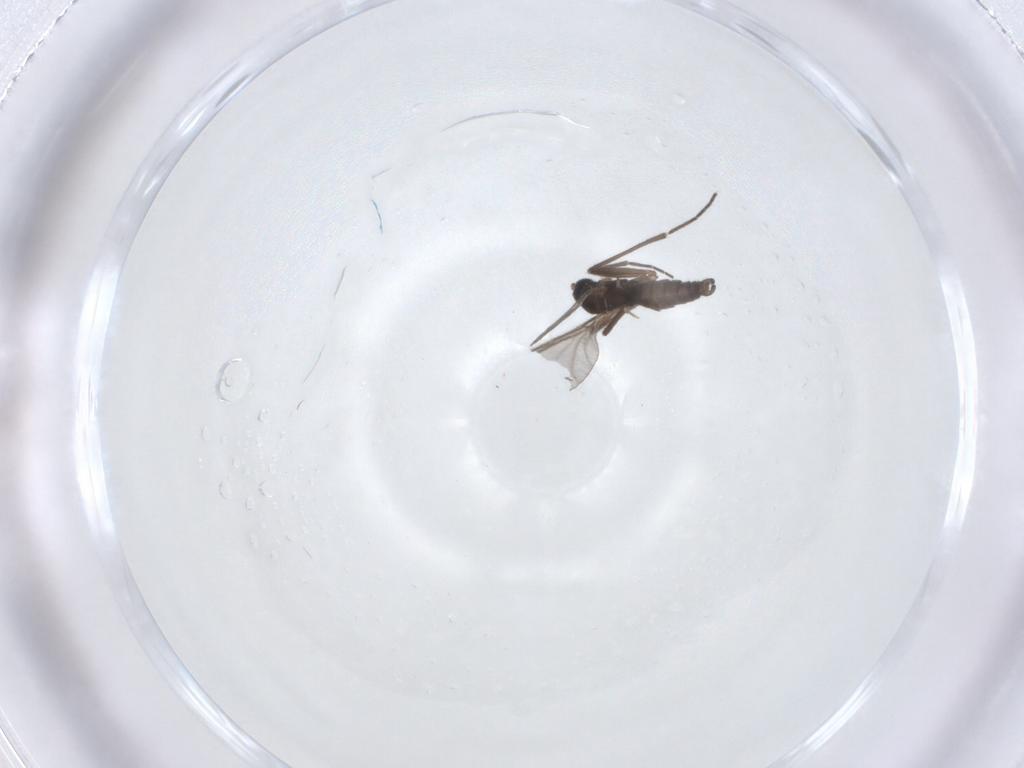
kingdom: Animalia
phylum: Arthropoda
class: Insecta
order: Diptera
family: Sciaridae
